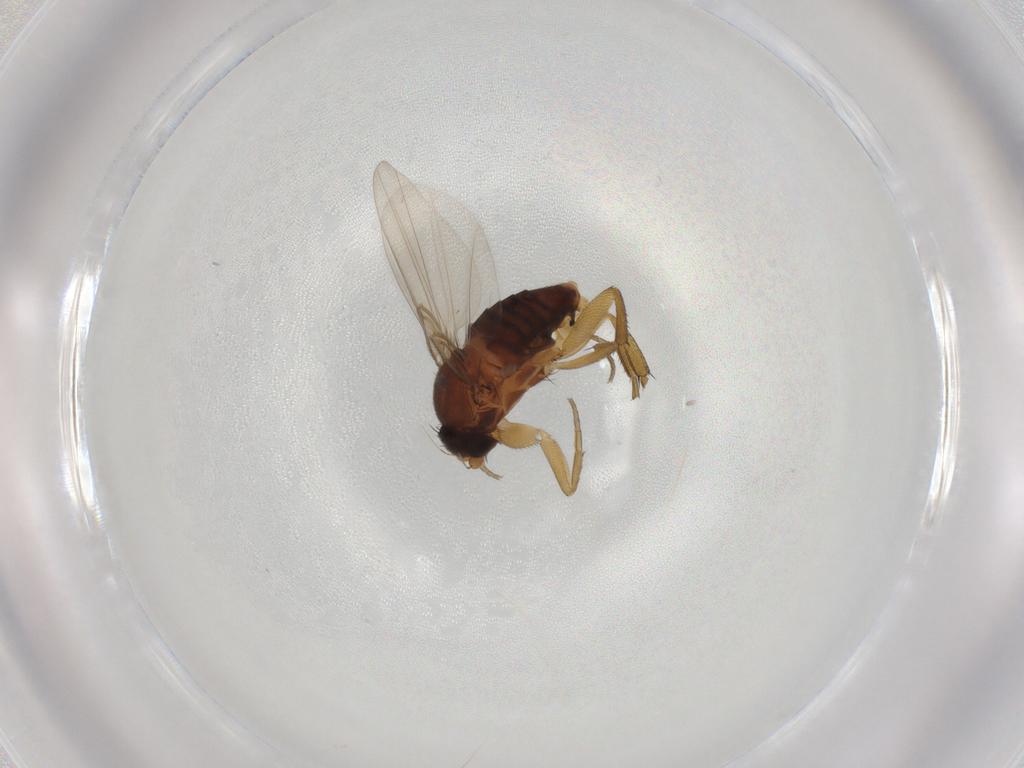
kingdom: Animalia
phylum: Arthropoda
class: Insecta
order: Diptera
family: Phoridae
